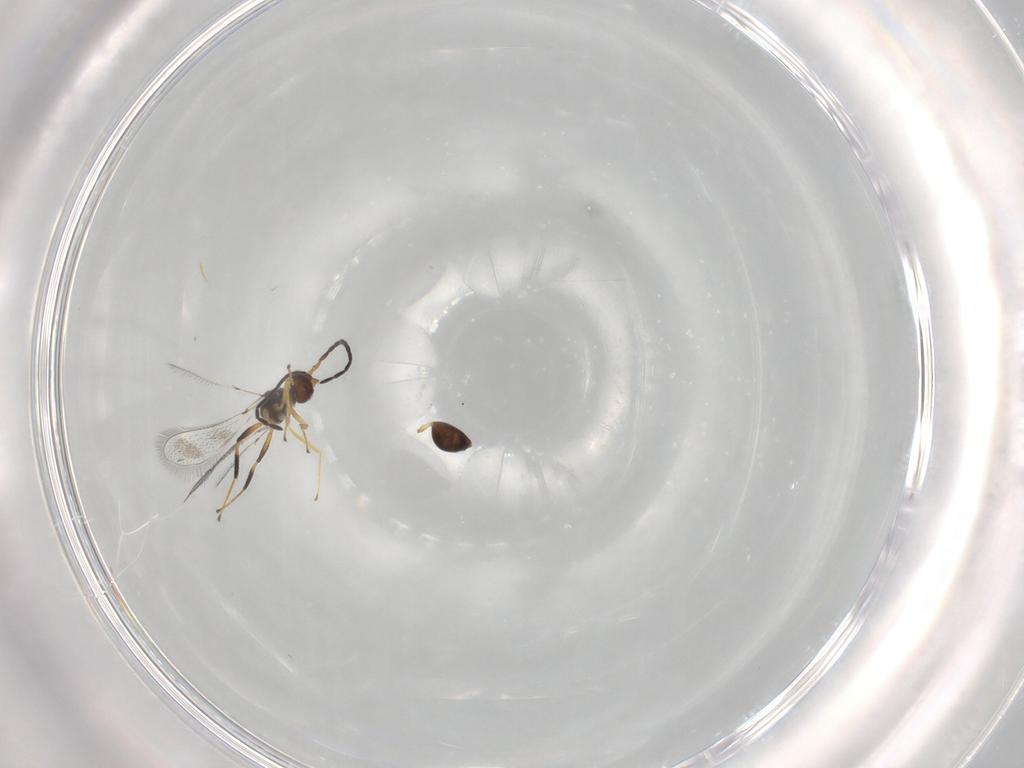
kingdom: Animalia
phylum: Arthropoda
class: Insecta
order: Hymenoptera
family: Mymaridae
